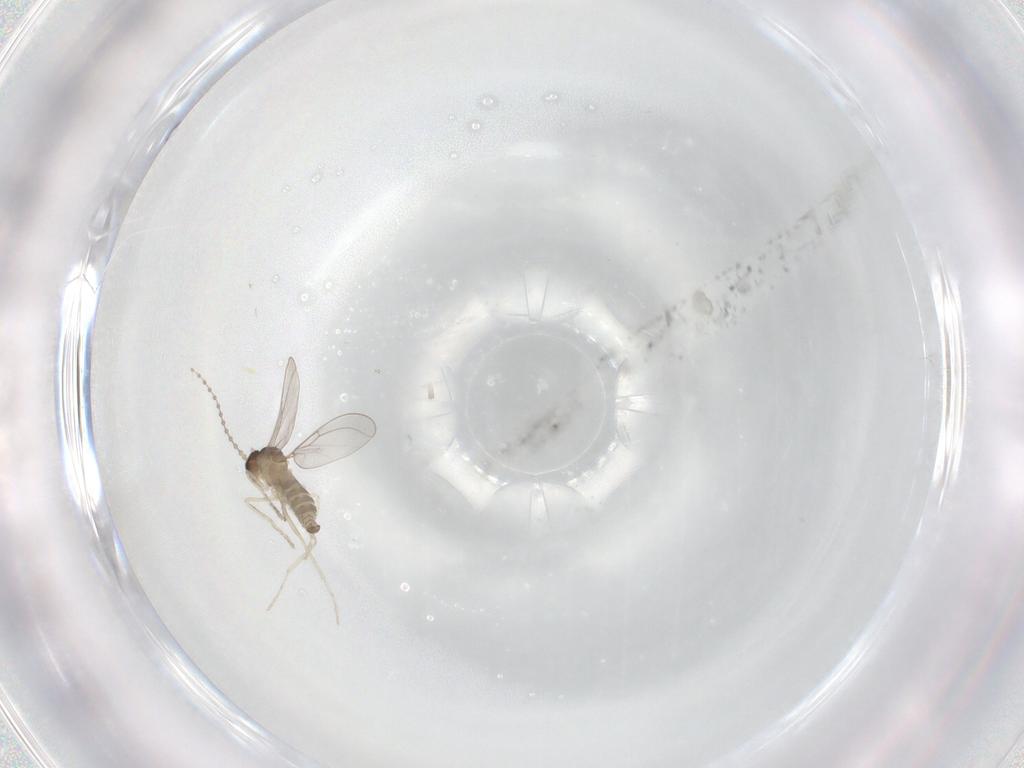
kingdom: Animalia
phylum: Arthropoda
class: Insecta
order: Diptera
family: Cecidomyiidae
